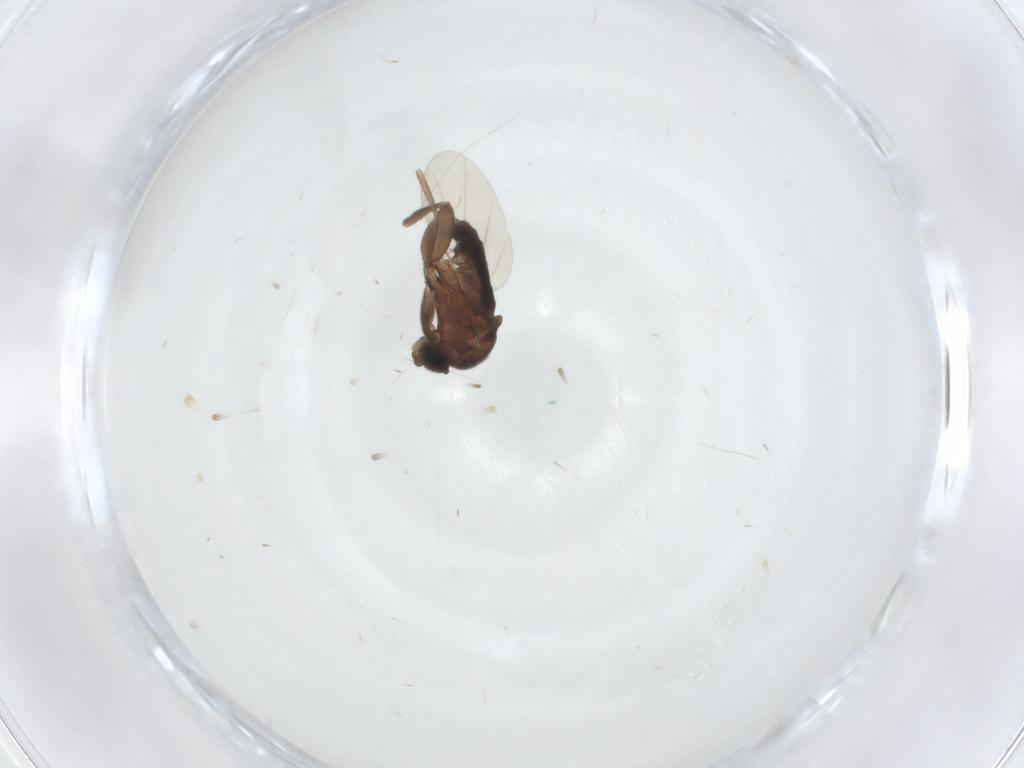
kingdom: Animalia
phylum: Arthropoda
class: Insecta
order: Diptera
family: Phoridae
